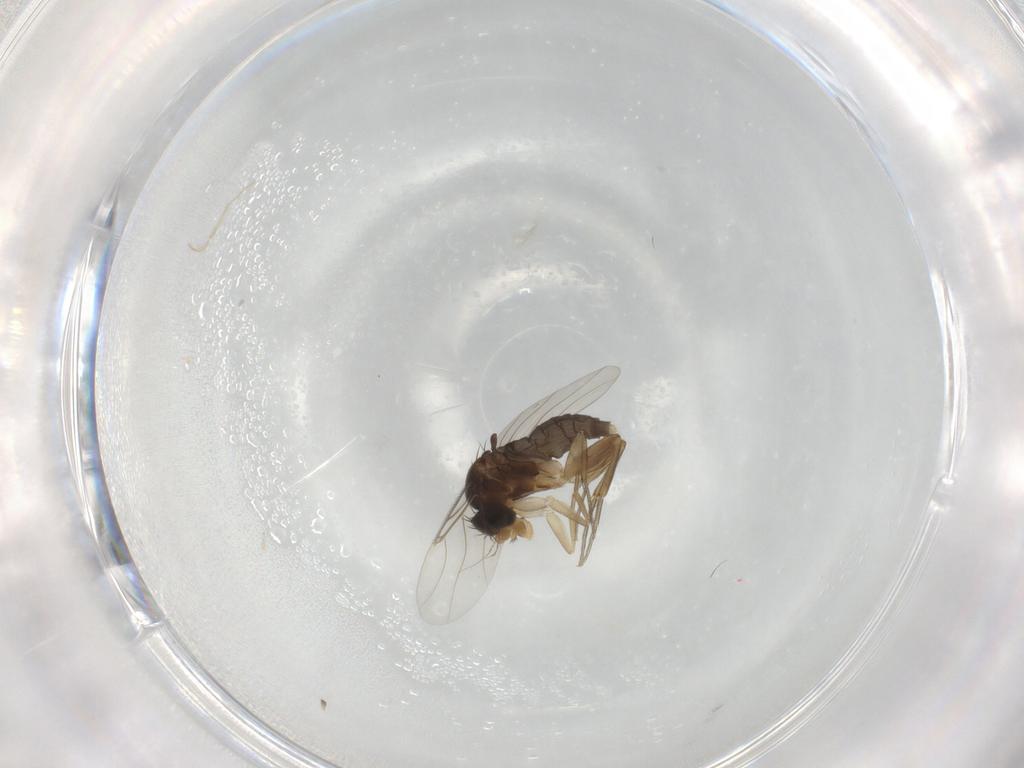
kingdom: Animalia
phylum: Arthropoda
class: Insecta
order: Diptera
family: Phoridae
